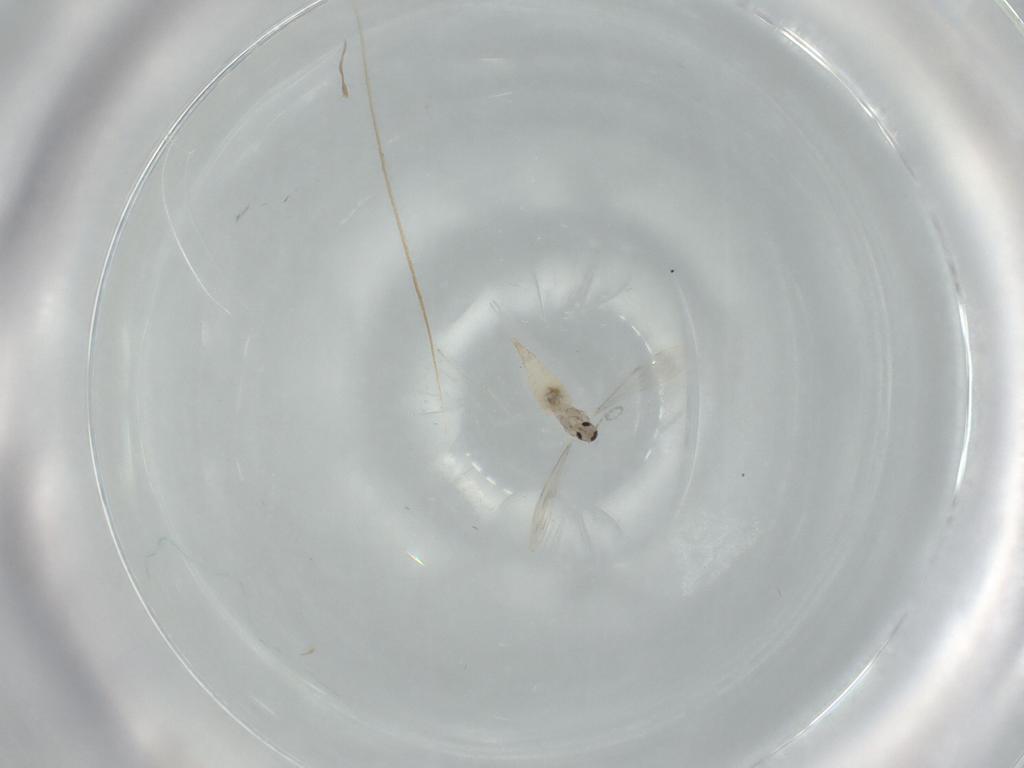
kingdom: Animalia
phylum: Arthropoda
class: Insecta
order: Diptera
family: Cecidomyiidae
